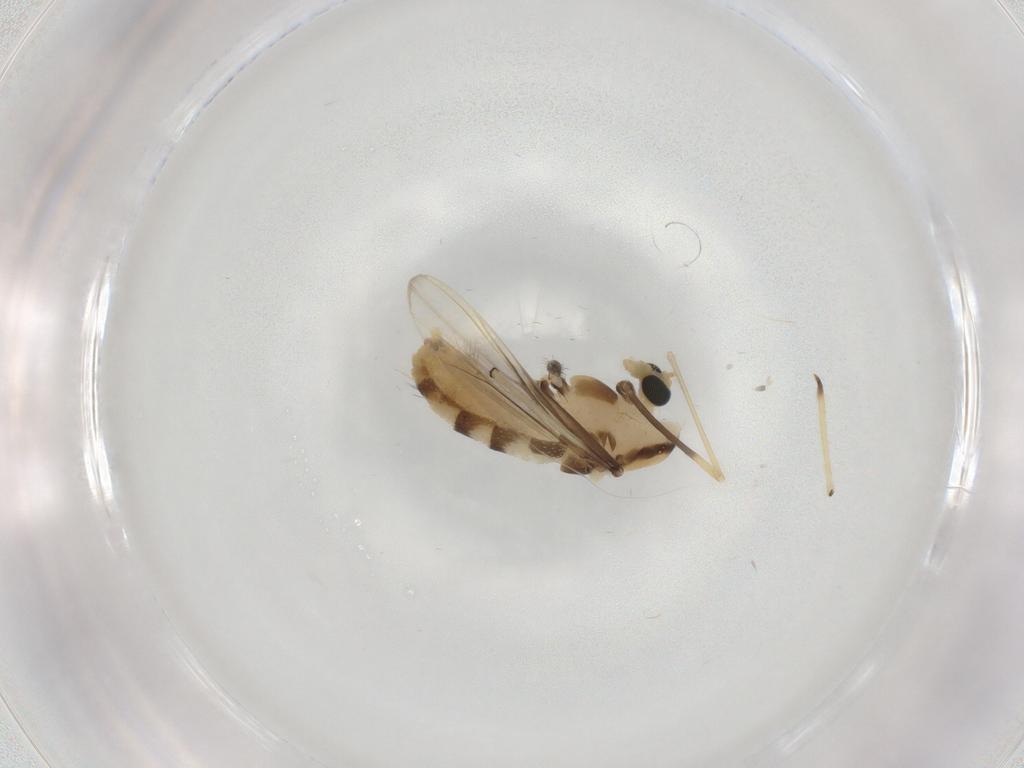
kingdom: Animalia
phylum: Arthropoda
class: Insecta
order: Diptera
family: Chironomidae
